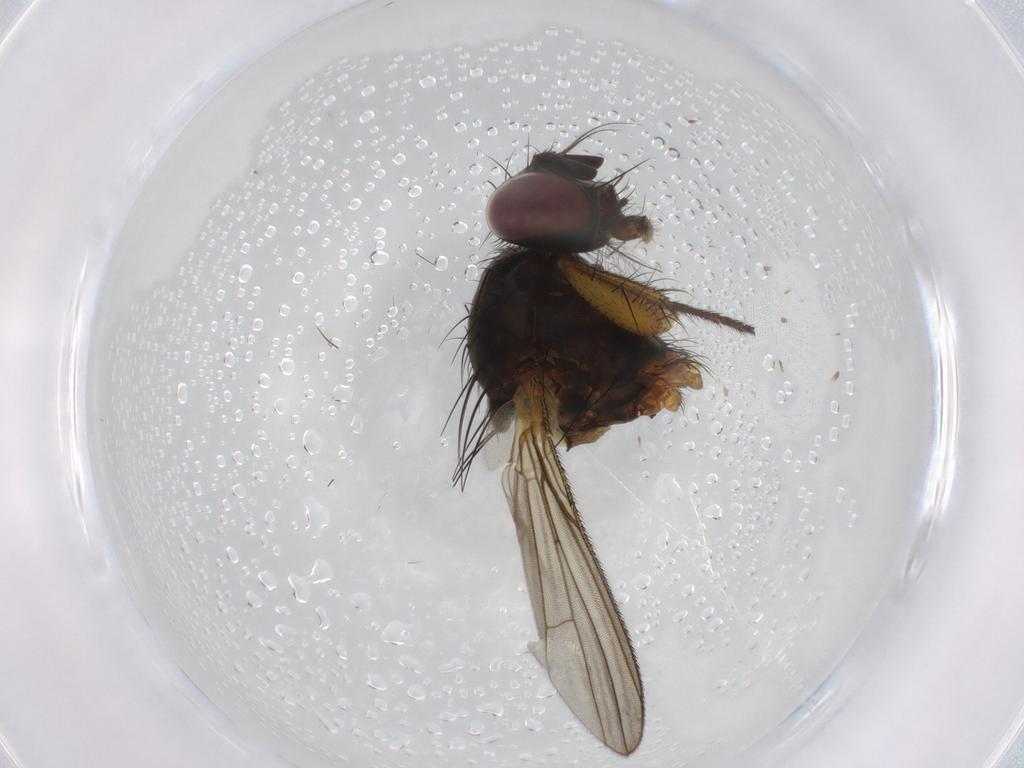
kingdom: Animalia
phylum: Arthropoda
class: Insecta
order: Diptera
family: Muscidae
